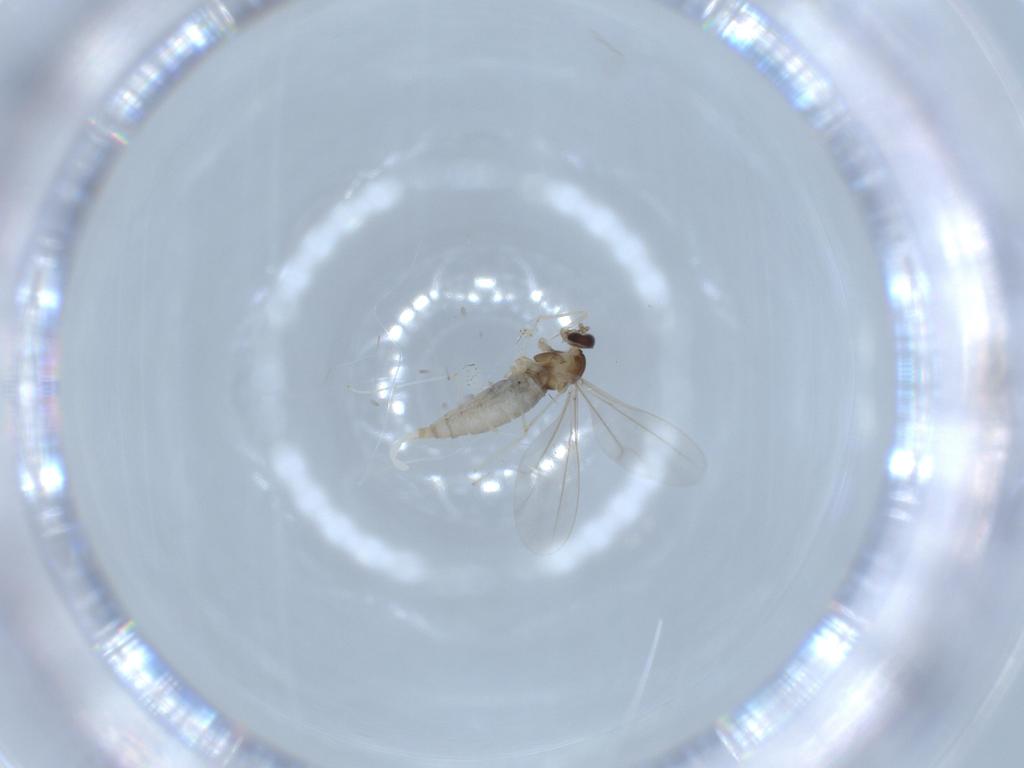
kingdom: Animalia
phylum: Arthropoda
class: Insecta
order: Diptera
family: Cecidomyiidae
